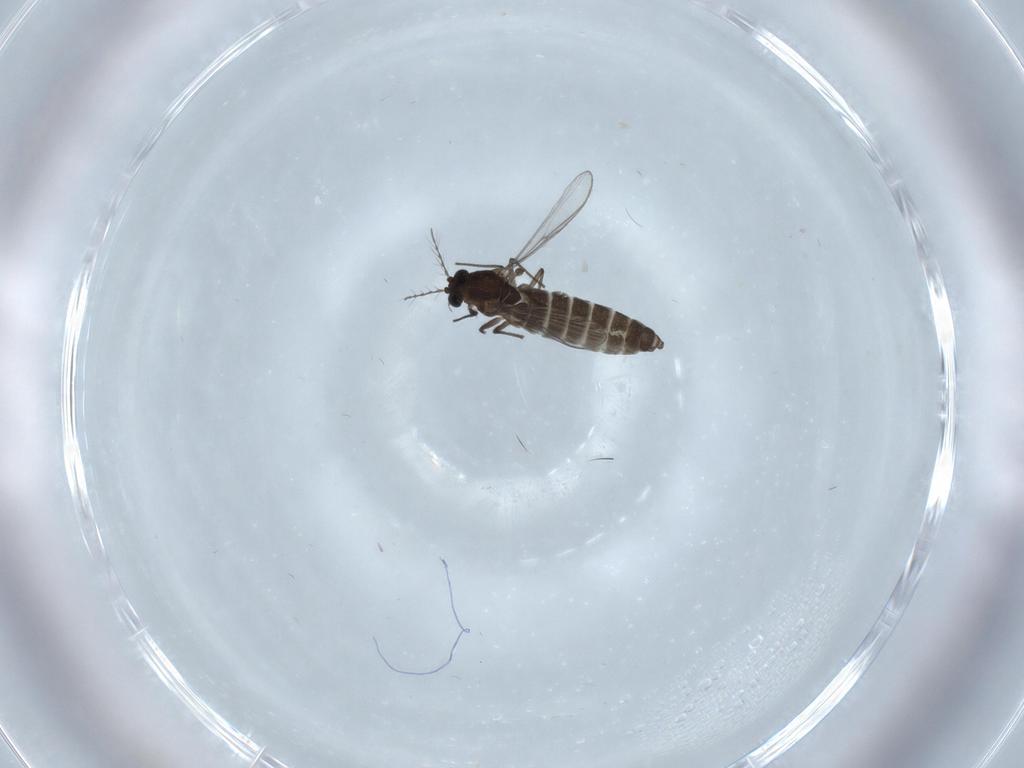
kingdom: Animalia
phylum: Arthropoda
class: Insecta
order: Diptera
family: Chironomidae
